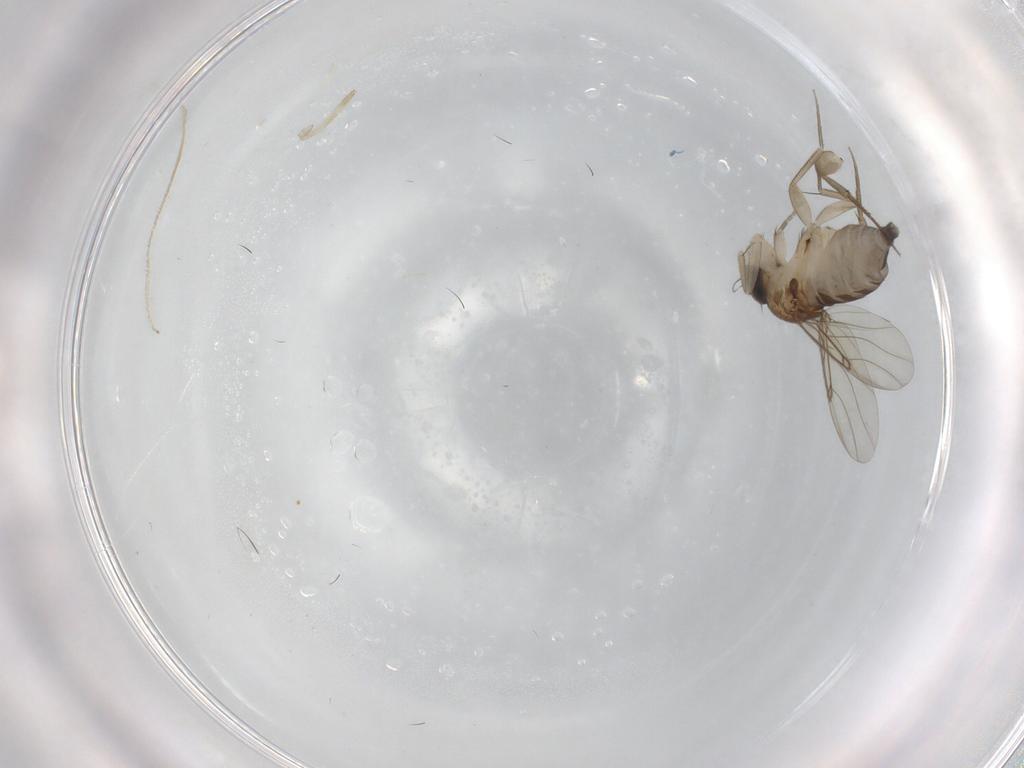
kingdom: Animalia
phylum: Arthropoda
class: Insecta
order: Diptera
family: Phoridae
